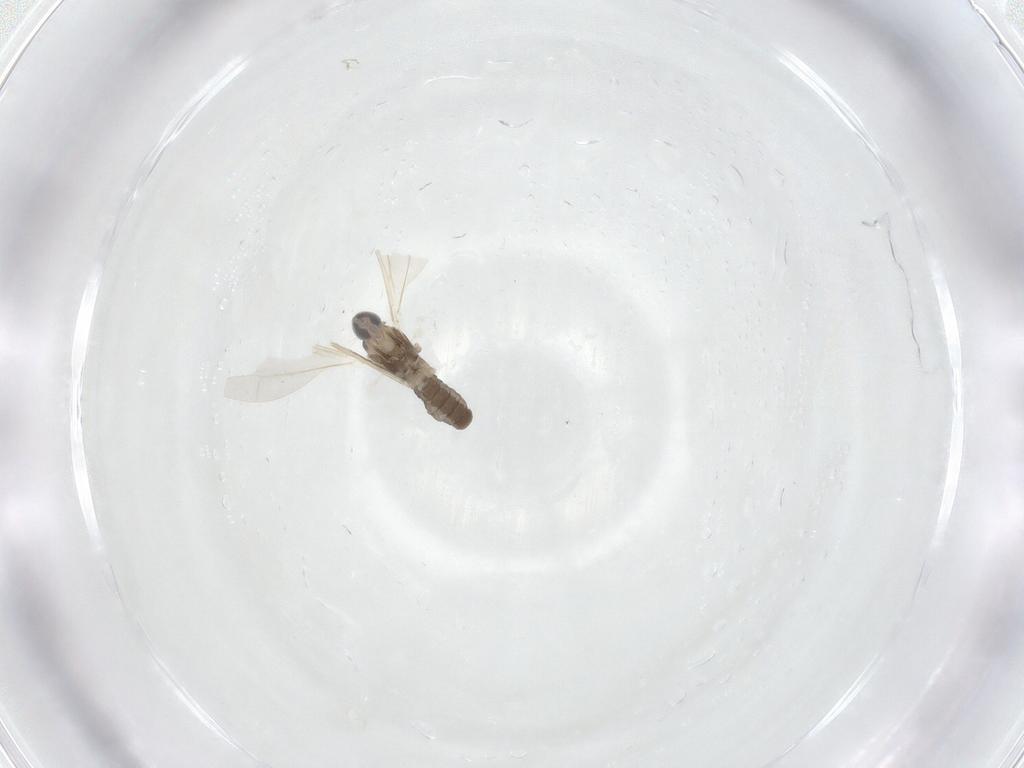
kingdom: Animalia
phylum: Arthropoda
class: Insecta
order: Diptera
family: Cecidomyiidae
